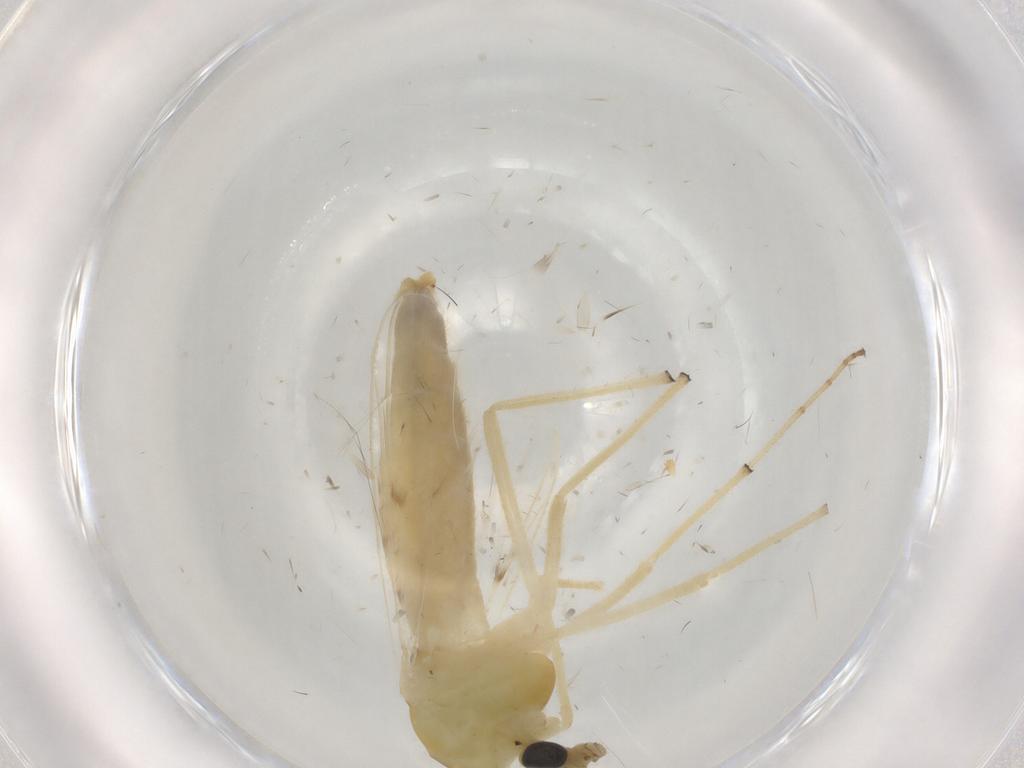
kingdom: Animalia
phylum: Arthropoda
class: Insecta
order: Diptera
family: Chironomidae
